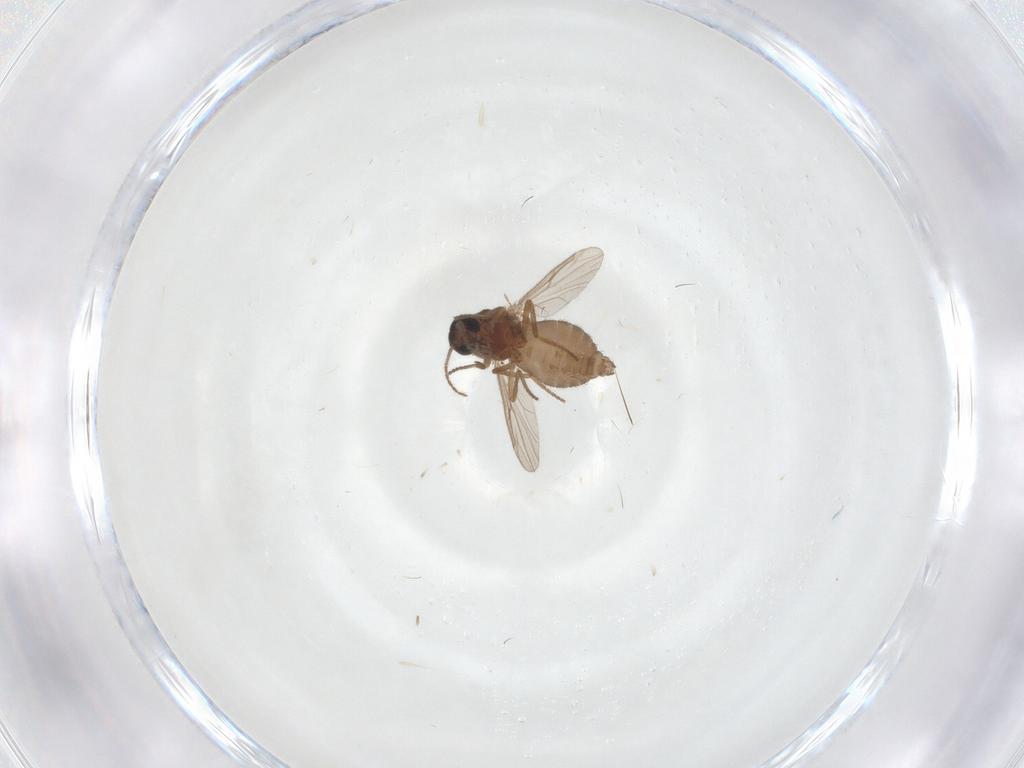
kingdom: Animalia
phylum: Arthropoda
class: Insecta
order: Diptera
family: Ceratopogonidae
